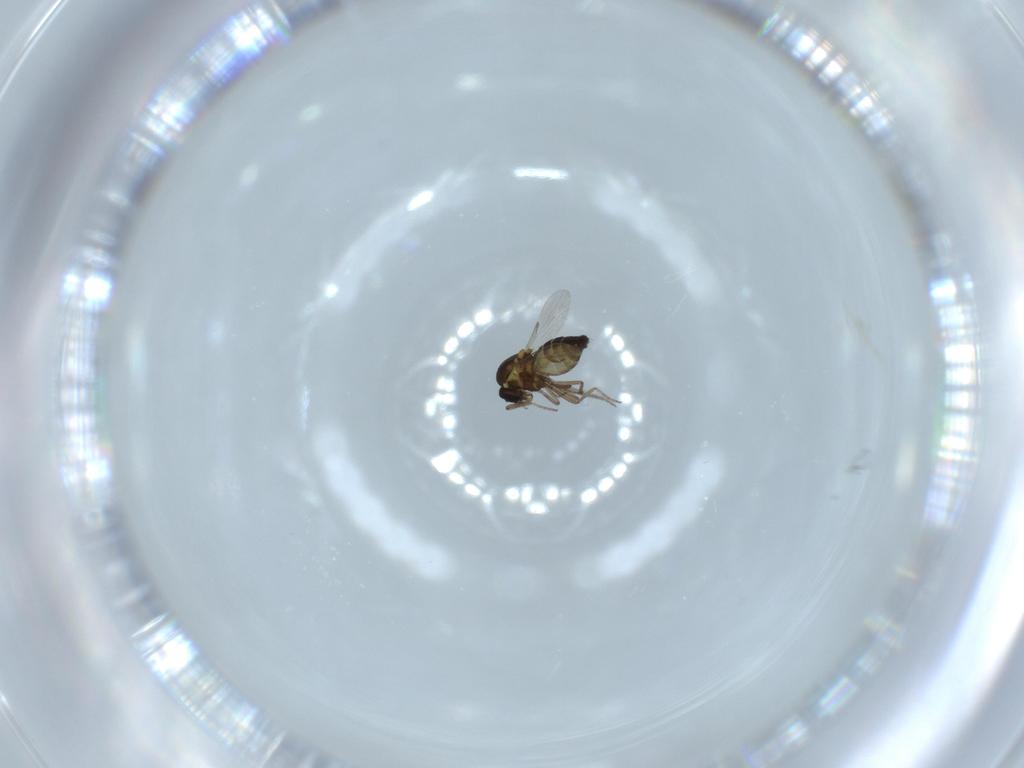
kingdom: Animalia
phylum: Arthropoda
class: Insecta
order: Diptera
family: Ceratopogonidae
